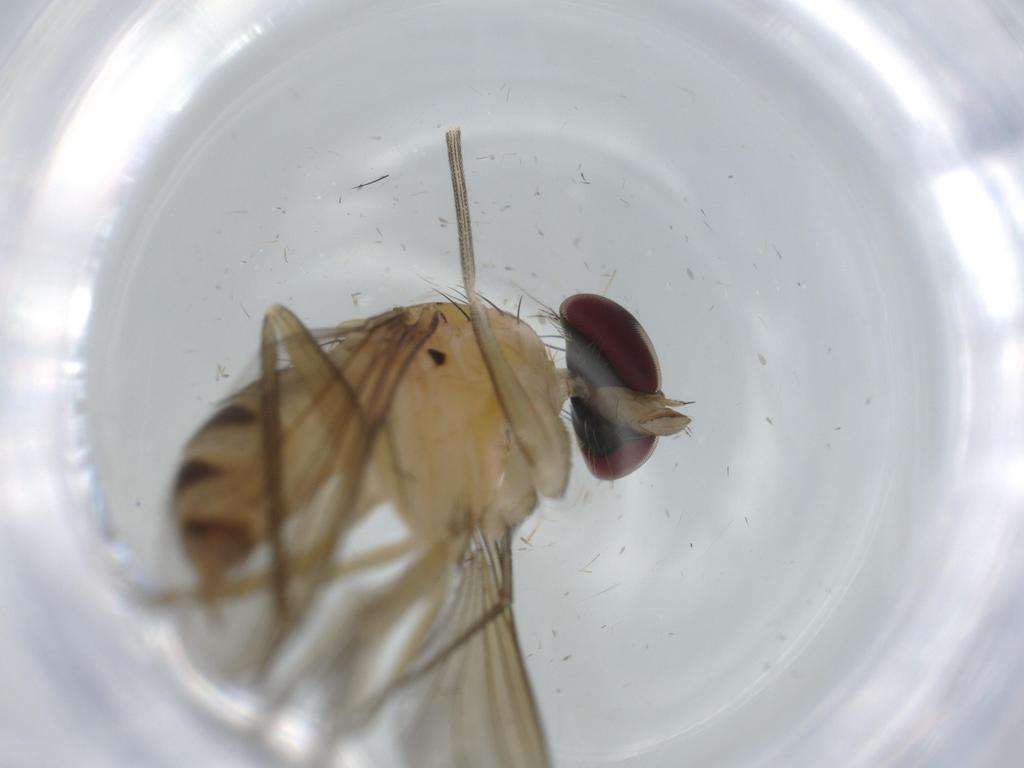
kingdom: Animalia
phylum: Arthropoda
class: Insecta
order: Diptera
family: Dolichopodidae
